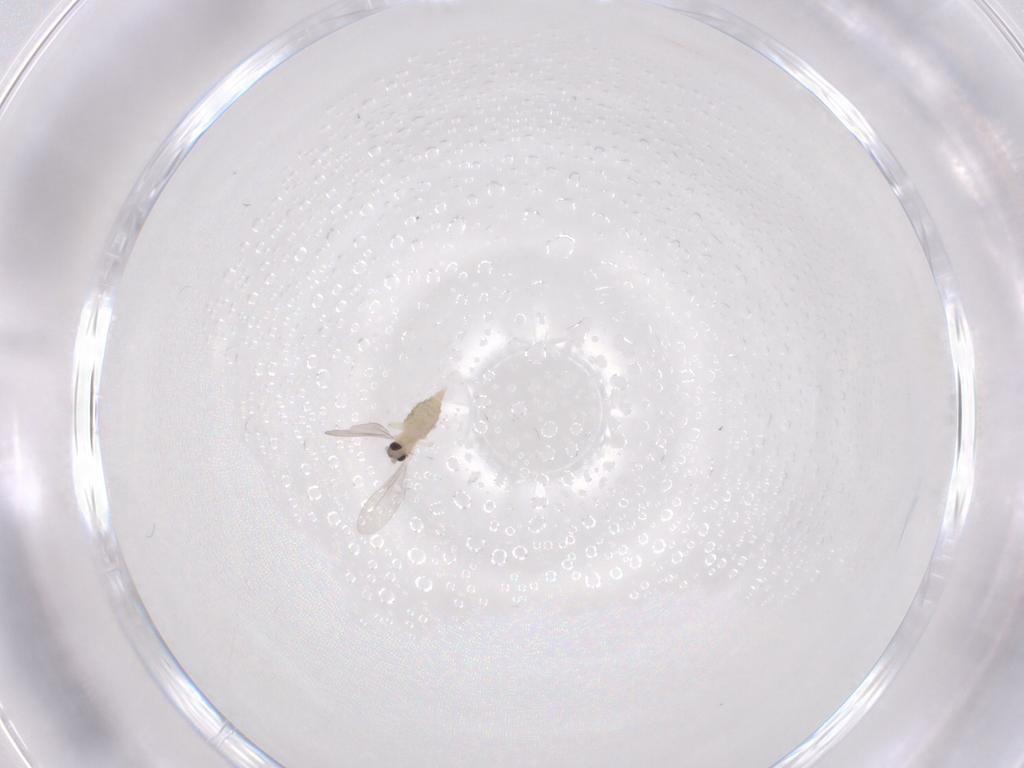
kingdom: Animalia
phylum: Arthropoda
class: Insecta
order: Diptera
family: Cecidomyiidae
